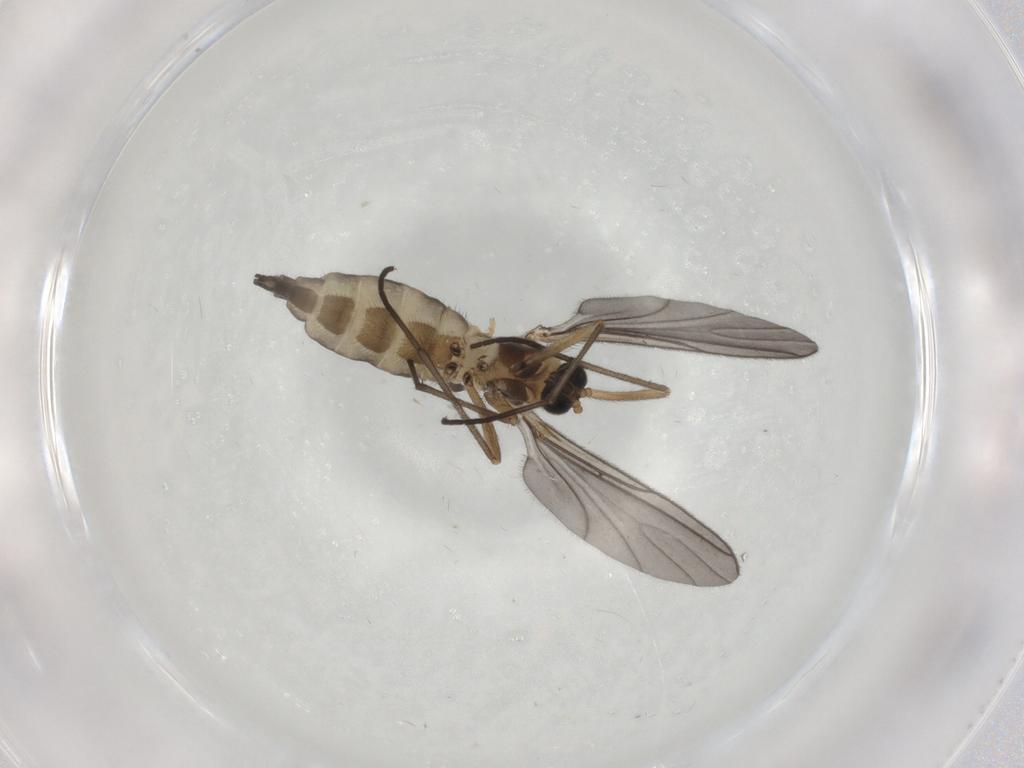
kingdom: Animalia
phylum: Arthropoda
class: Insecta
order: Diptera
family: Sciaridae
